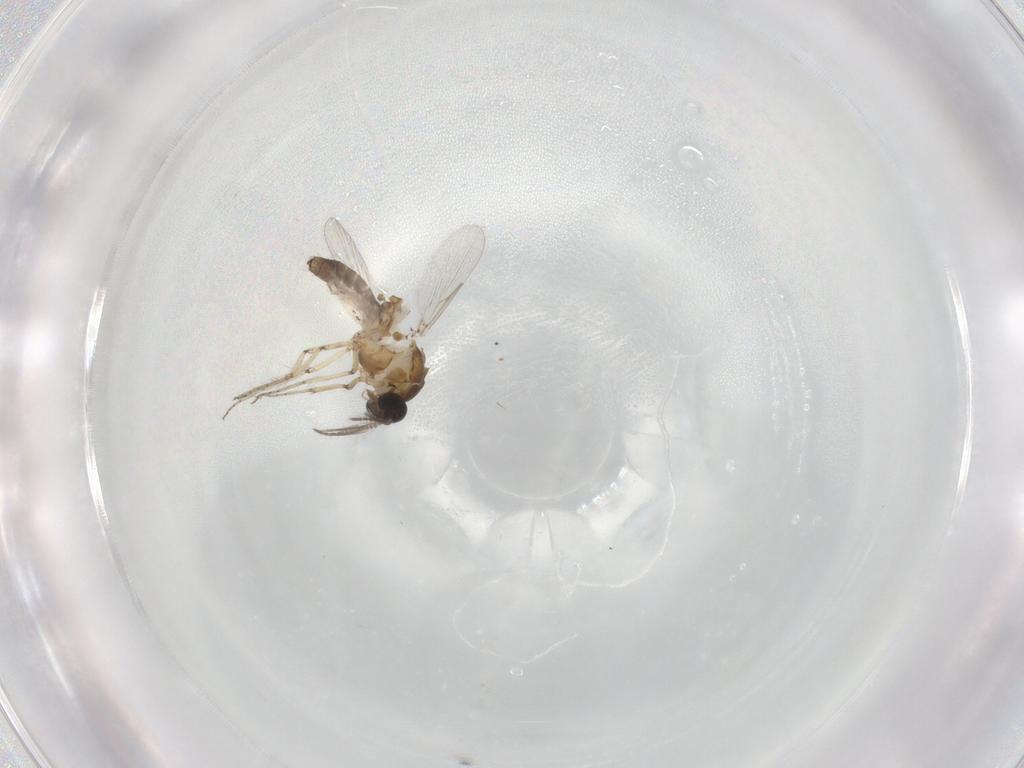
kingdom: Animalia
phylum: Arthropoda
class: Insecta
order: Diptera
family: Ceratopogonidae
